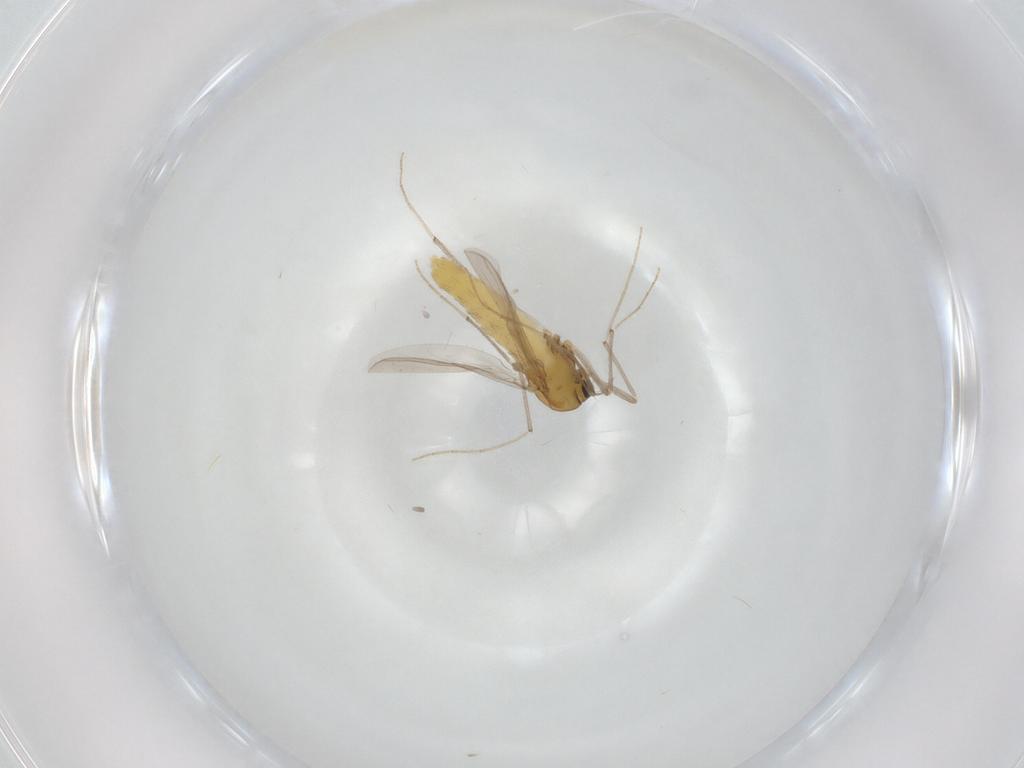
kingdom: Animalia
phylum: Arthropoda
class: Insecta
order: Diptera
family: Chironomidae
